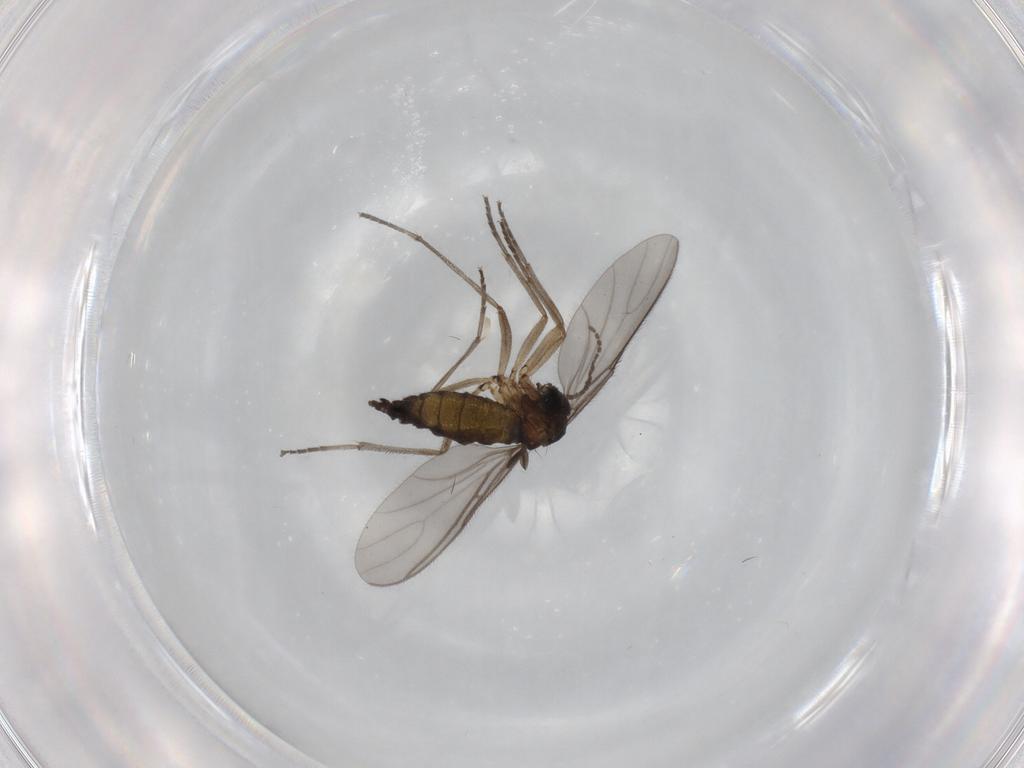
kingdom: Animalia
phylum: Arthropoda
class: Insecta
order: Diptera
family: Sciaridae
